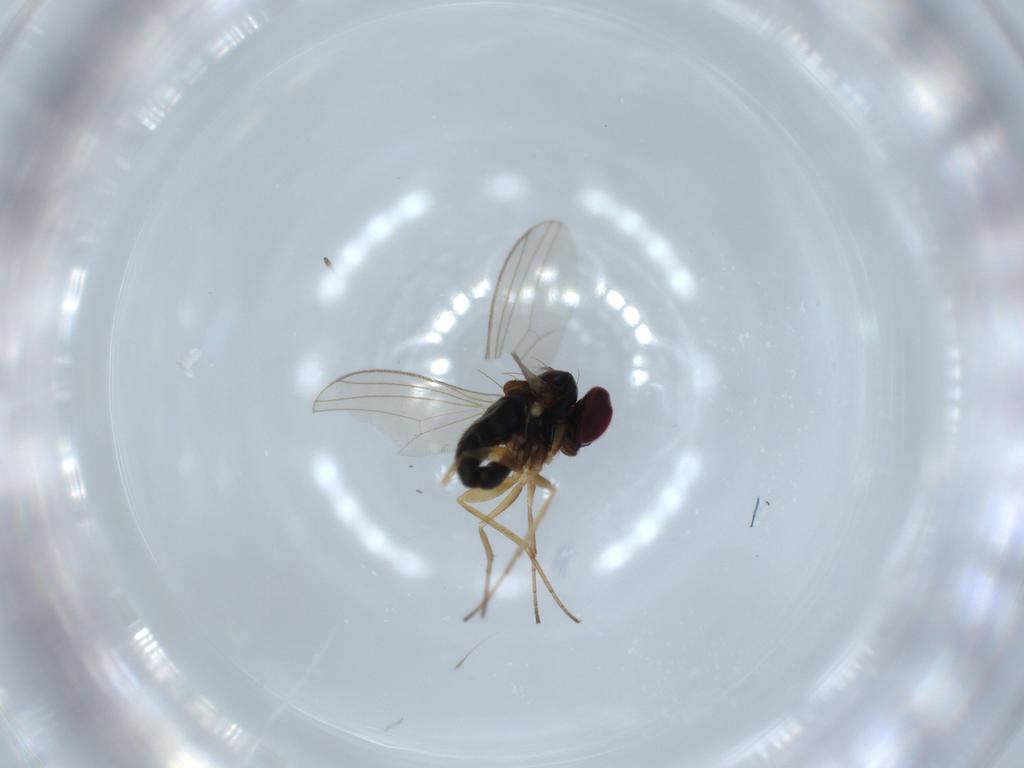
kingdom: Animalia
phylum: Arthropoda
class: Insecta
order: Diptera
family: Dolichopodidae
